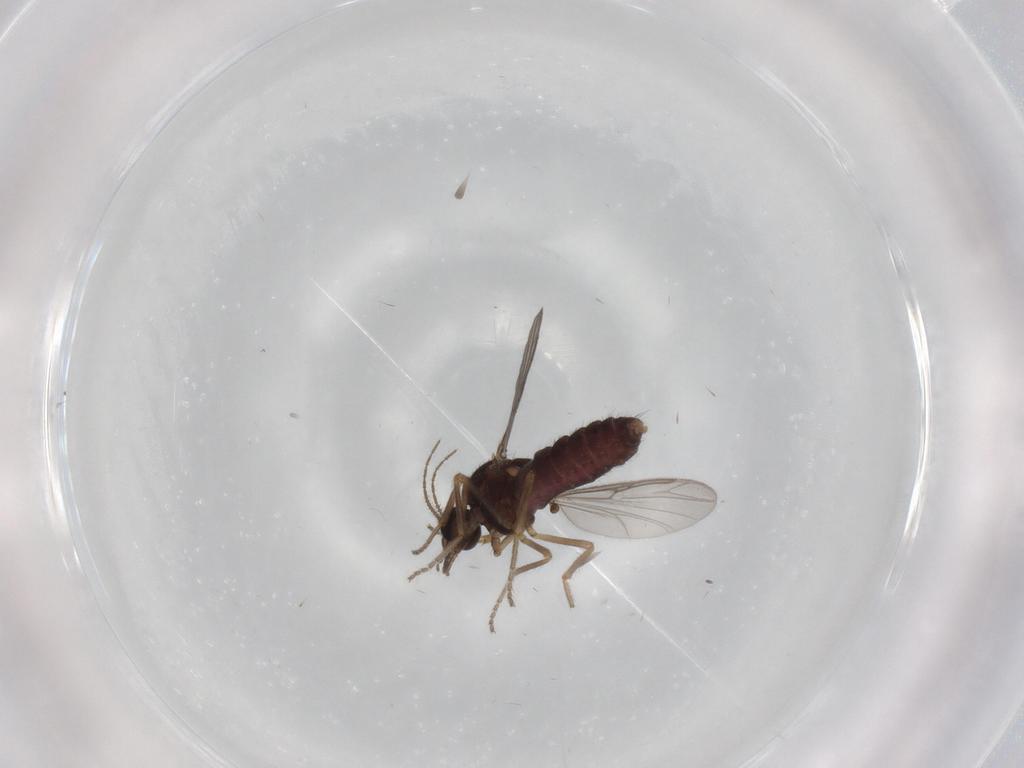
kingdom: Animalia
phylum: Arthropoda
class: Insecta
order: Diptera
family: Ceratopogonidae
